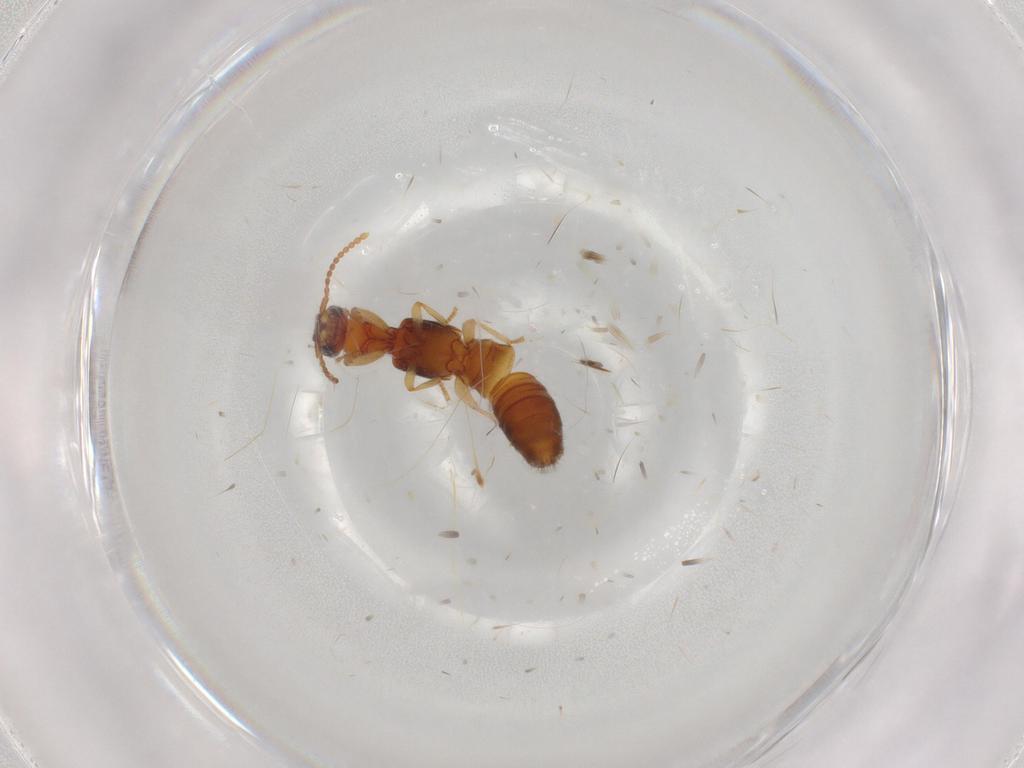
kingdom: Animalia
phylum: Arthropoda
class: Insecta
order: Coleoptera
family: Staphylinidae
